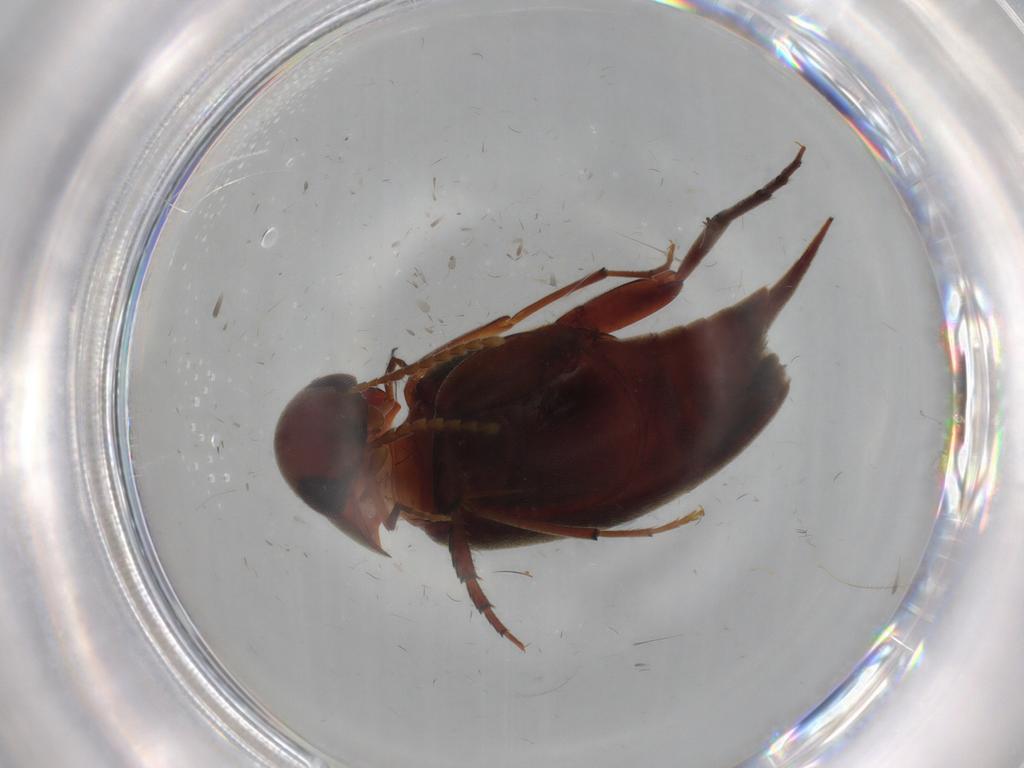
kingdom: Animalia
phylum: Arthropoda
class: Insecta
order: Coleoptera
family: Mordellidae
